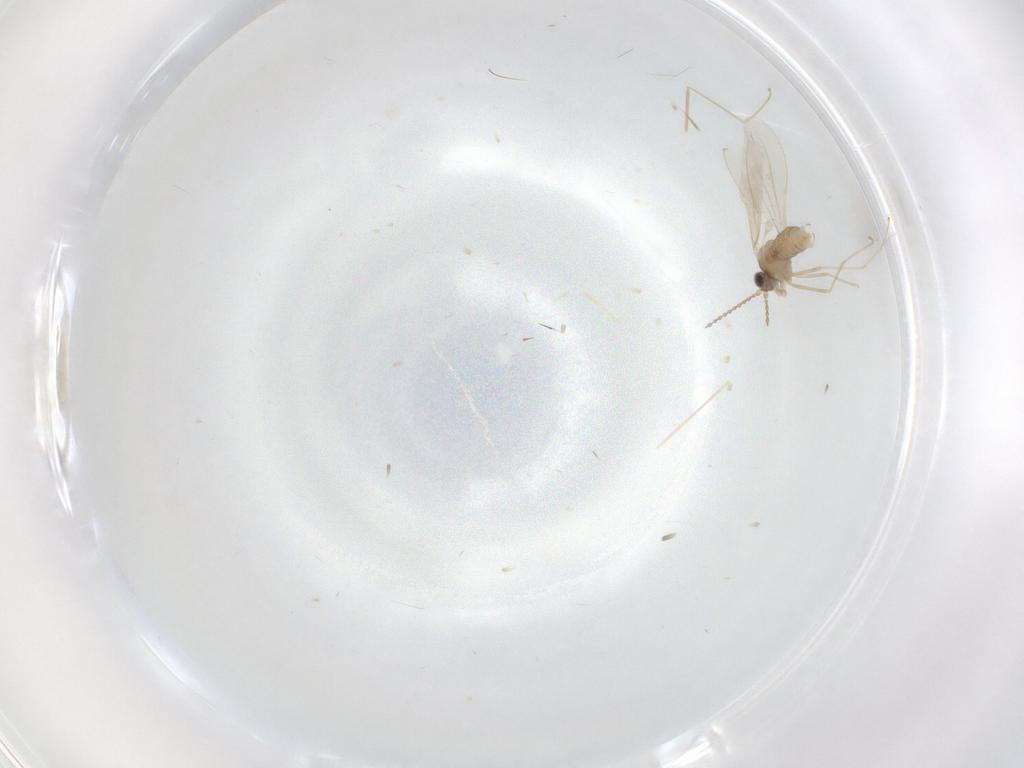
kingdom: Animalia
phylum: Arthropoda
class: Insecta
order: Diptera
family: Cecidomyiidae
